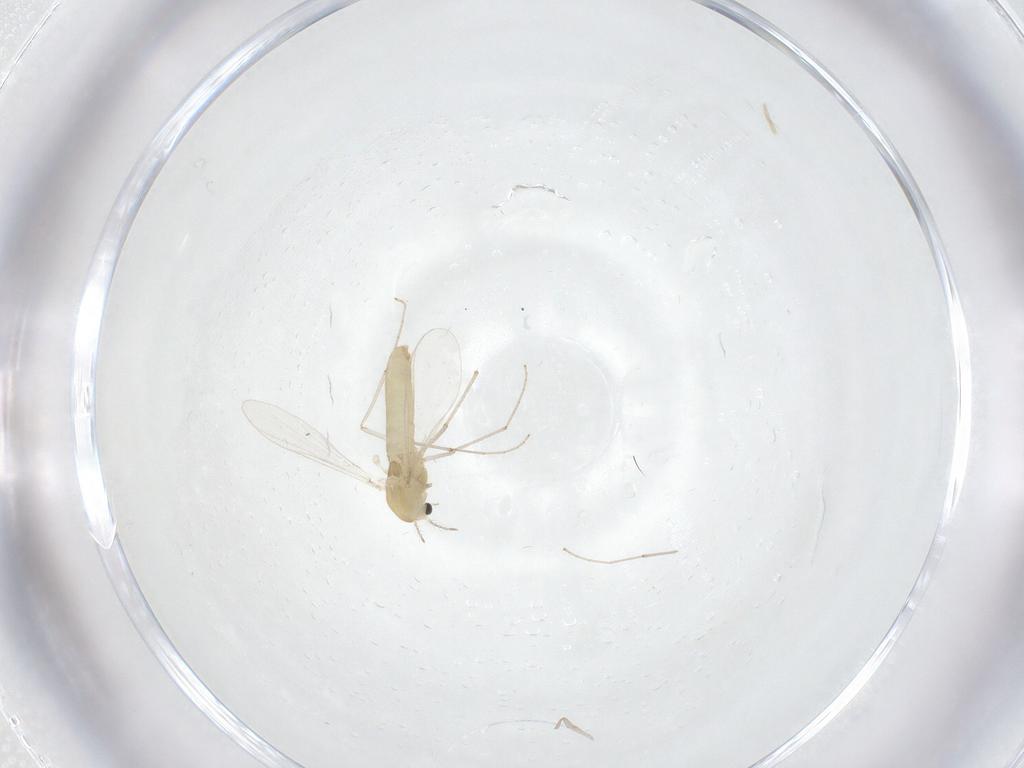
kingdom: Animalia
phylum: Arthropoda
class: Insecta
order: Diptera
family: Chironomidae
